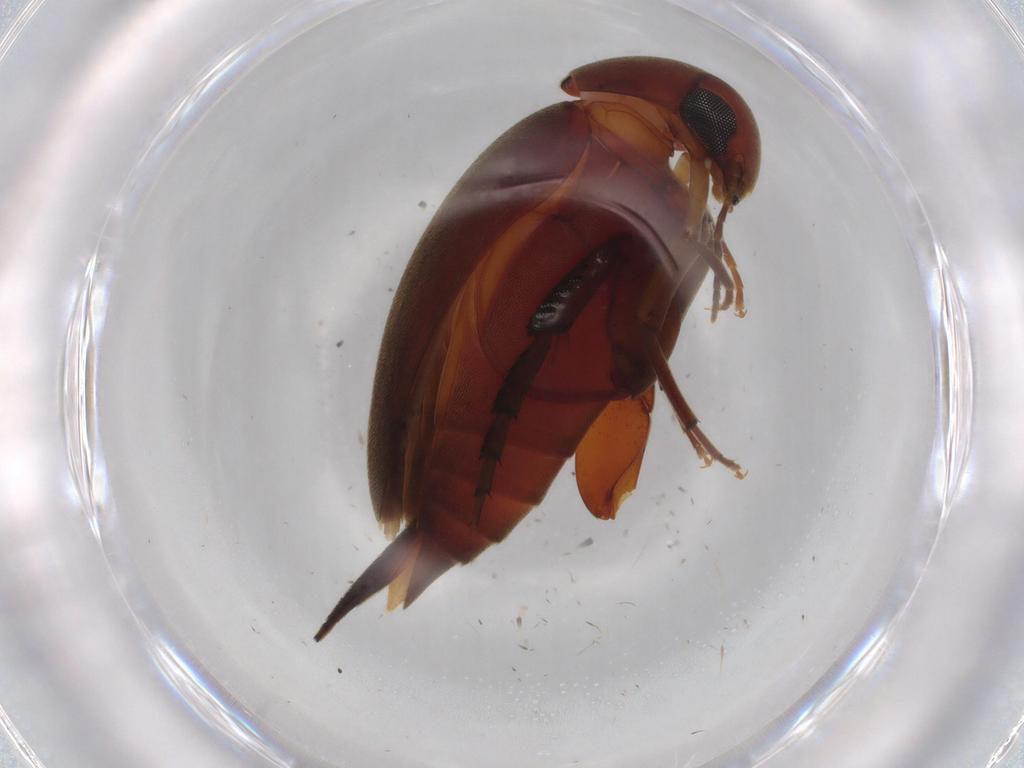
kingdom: Animalia
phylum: Arthropoda
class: Insecta
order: Coleoptera
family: Mordellidae
